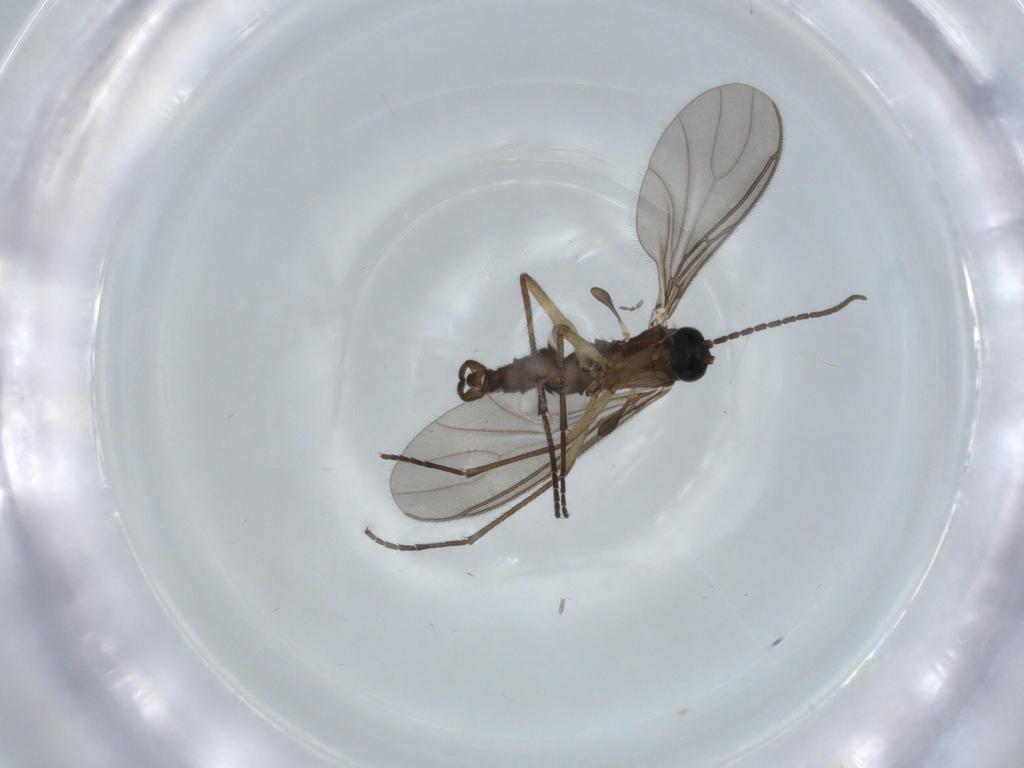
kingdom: Animalia
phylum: Arthropoda
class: Insecta
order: Diptera
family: Sciaridae
